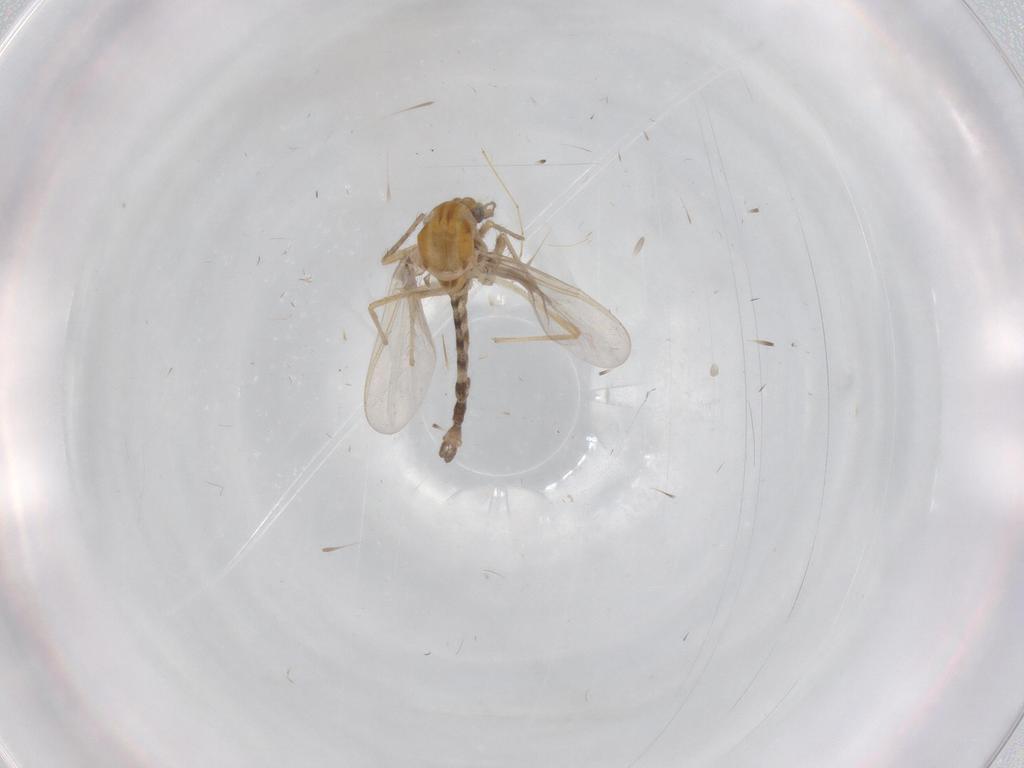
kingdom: Animalia
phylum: Arthropoda
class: Insecta
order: Diptera
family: Chironomidae
